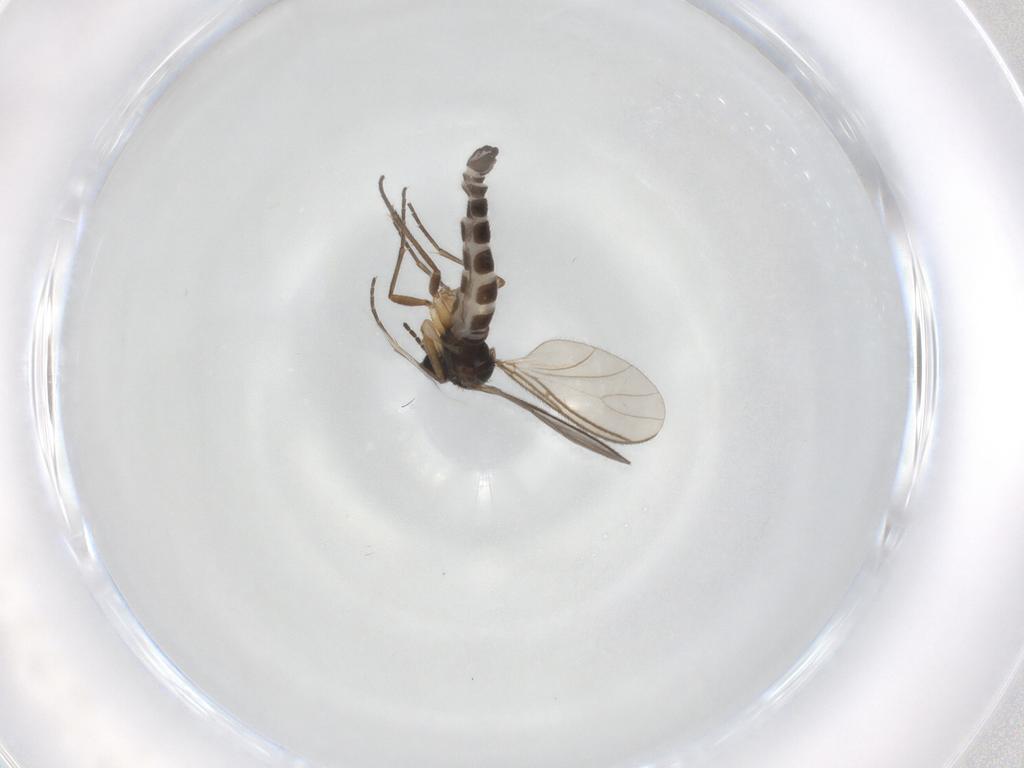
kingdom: Animalia
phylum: Arthropoda
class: Insecta
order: Diptera
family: Sciaridae
